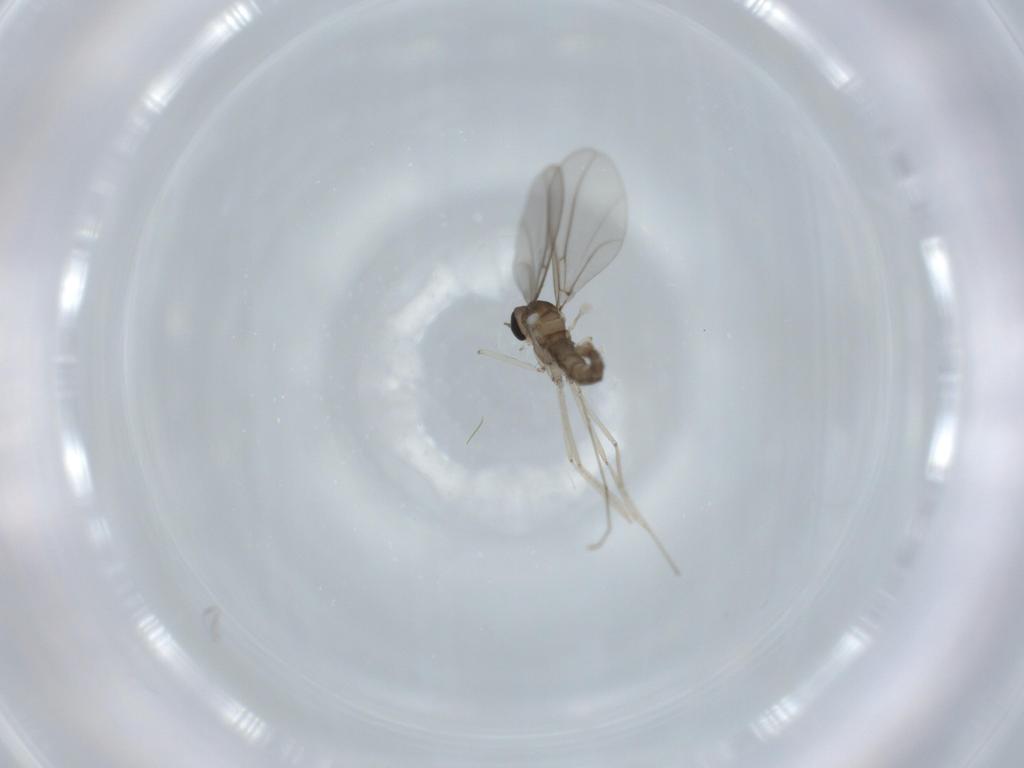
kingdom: Animalia
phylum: Arthropoda
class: Insecta
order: Diptera
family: Cecidomyiidae
